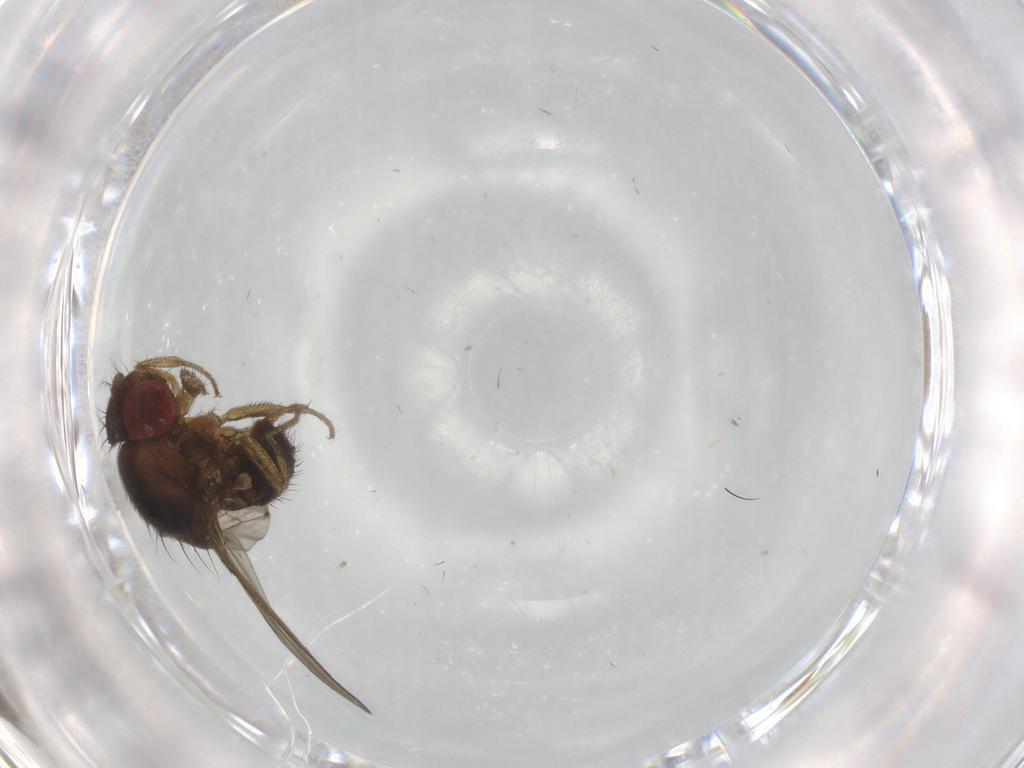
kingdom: Animalia
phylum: Arthropoda
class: Insecta
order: Diptera
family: Drosophilidae
